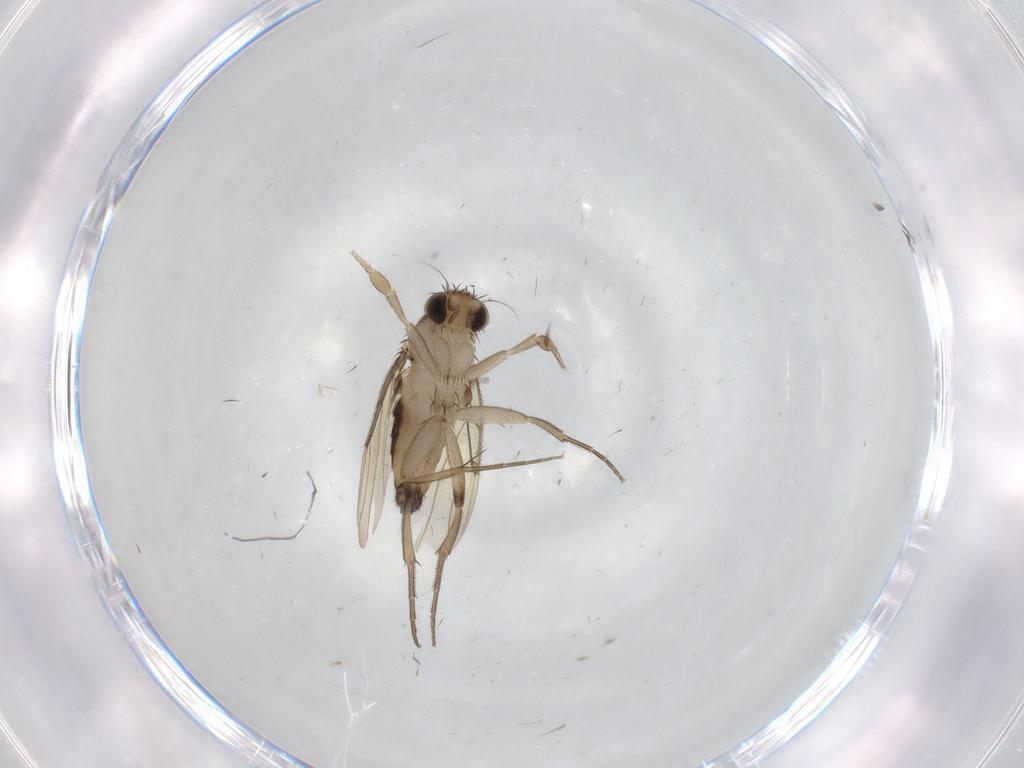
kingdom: Animalia
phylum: Arthropoda
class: Insecta
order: Diptera
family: Phoridae
